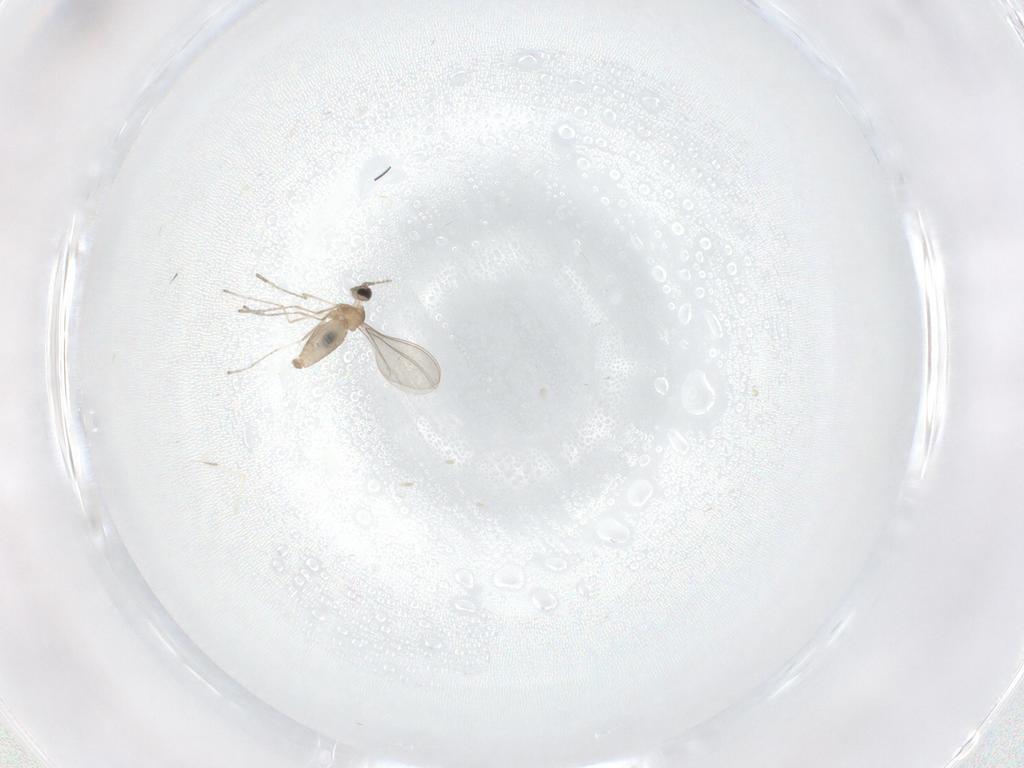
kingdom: Animalia
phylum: Arthropoda
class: Insecta
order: Diptera
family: Cecidomyiidae
